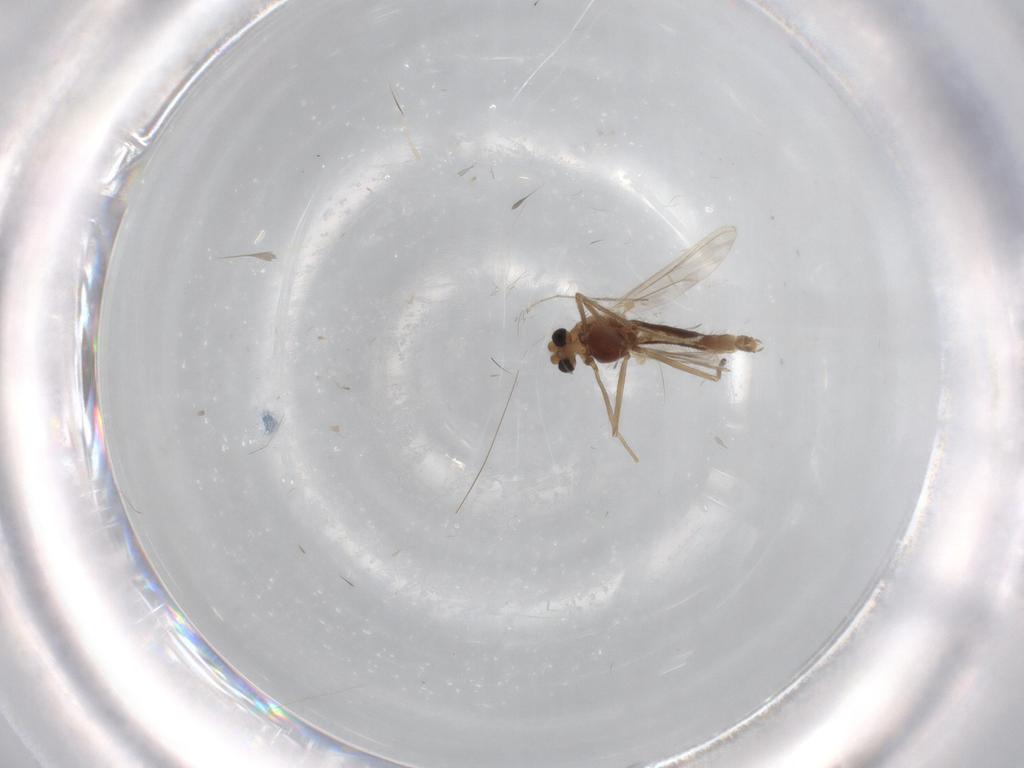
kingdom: Animalia
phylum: Arthropoda
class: Insecta
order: Diptera
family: Chironomidae
